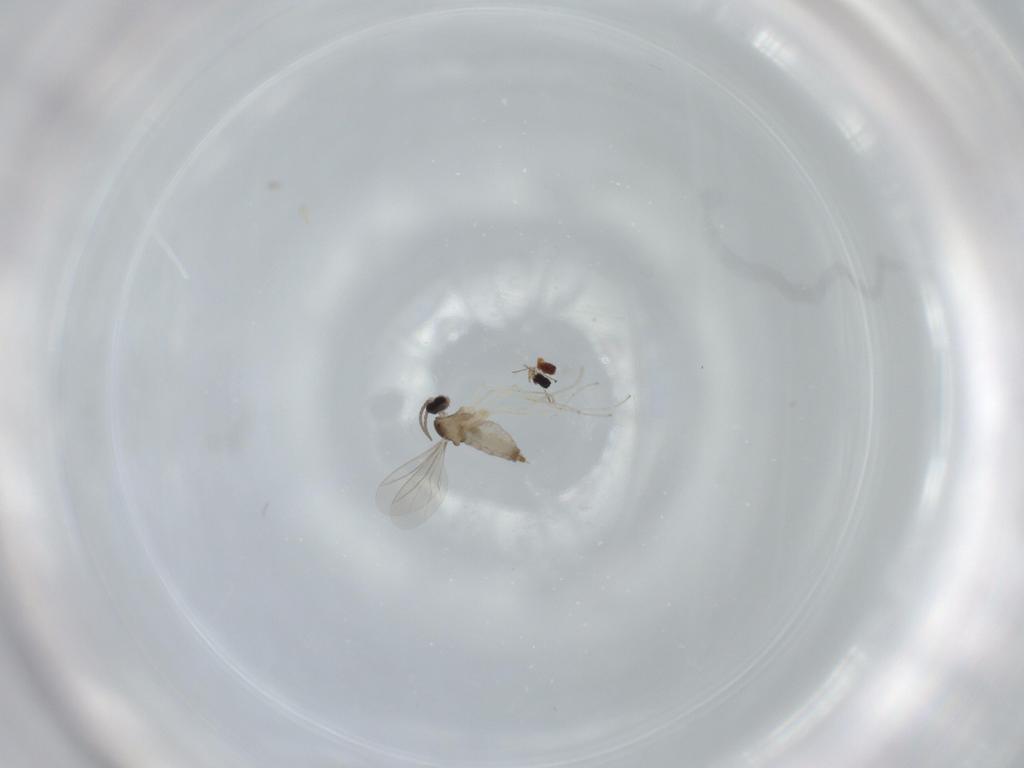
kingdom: Animalia
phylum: Arthropoda
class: Insecta
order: Diptera
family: Cecidomyiidae
